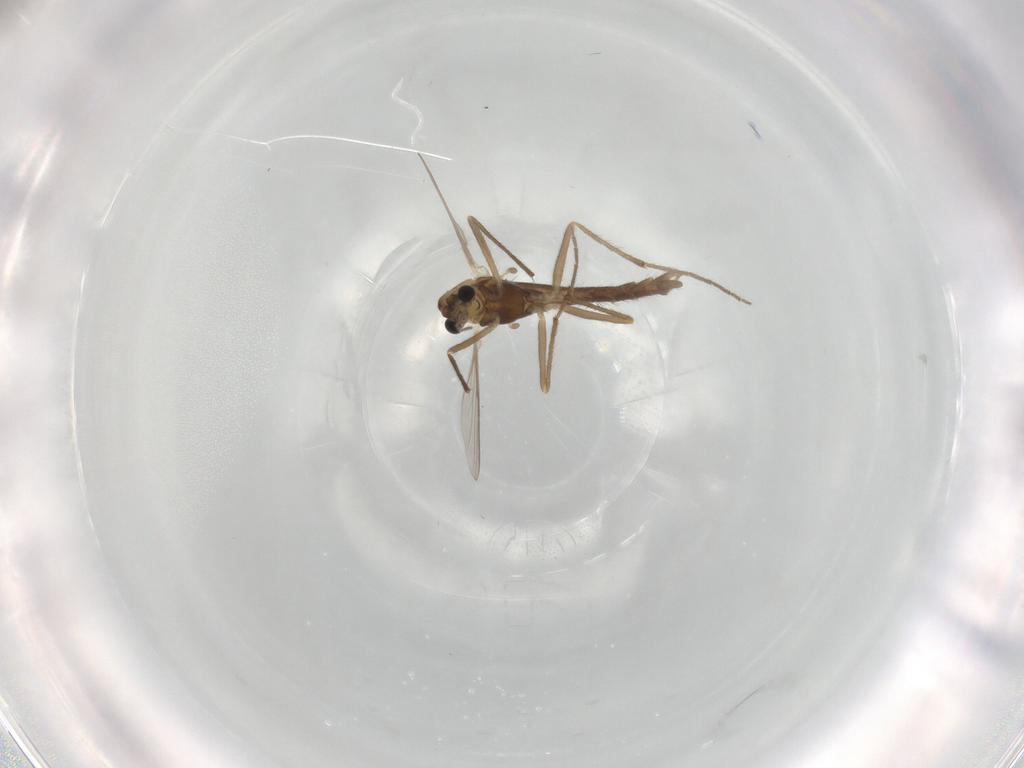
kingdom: Animalia
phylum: Arthropoda
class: Insecta
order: Diptera
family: Chironomidae
